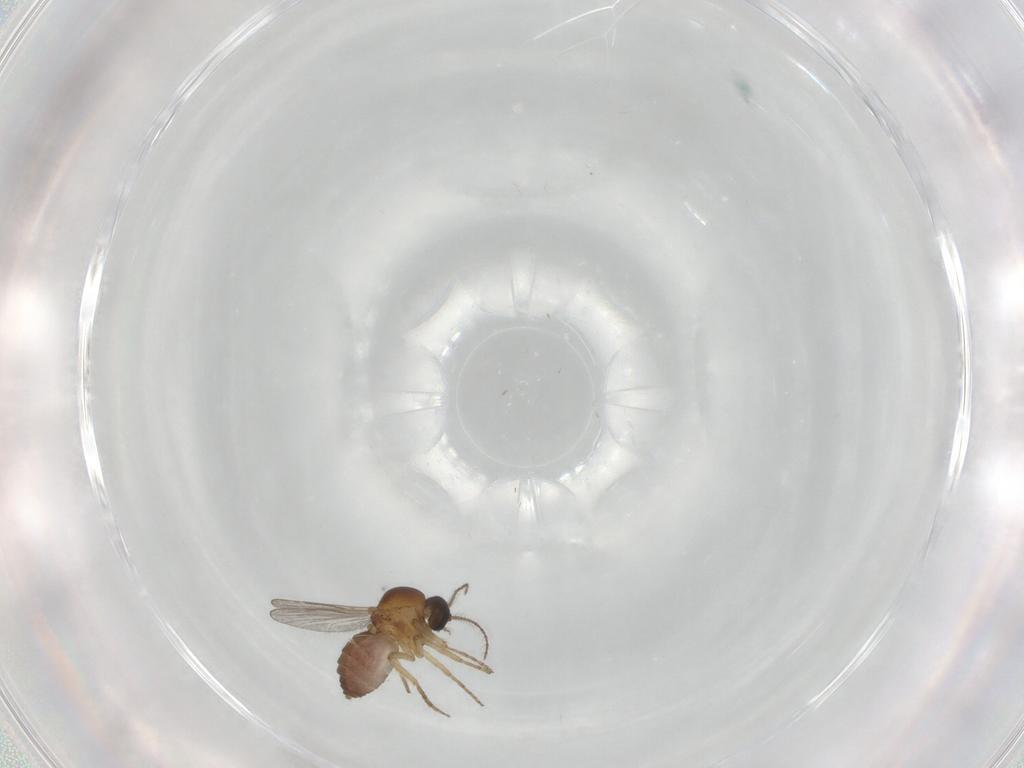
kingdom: Animalia
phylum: Arthropoda
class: Insecta
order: Diptera
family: Ceratopogonidae
